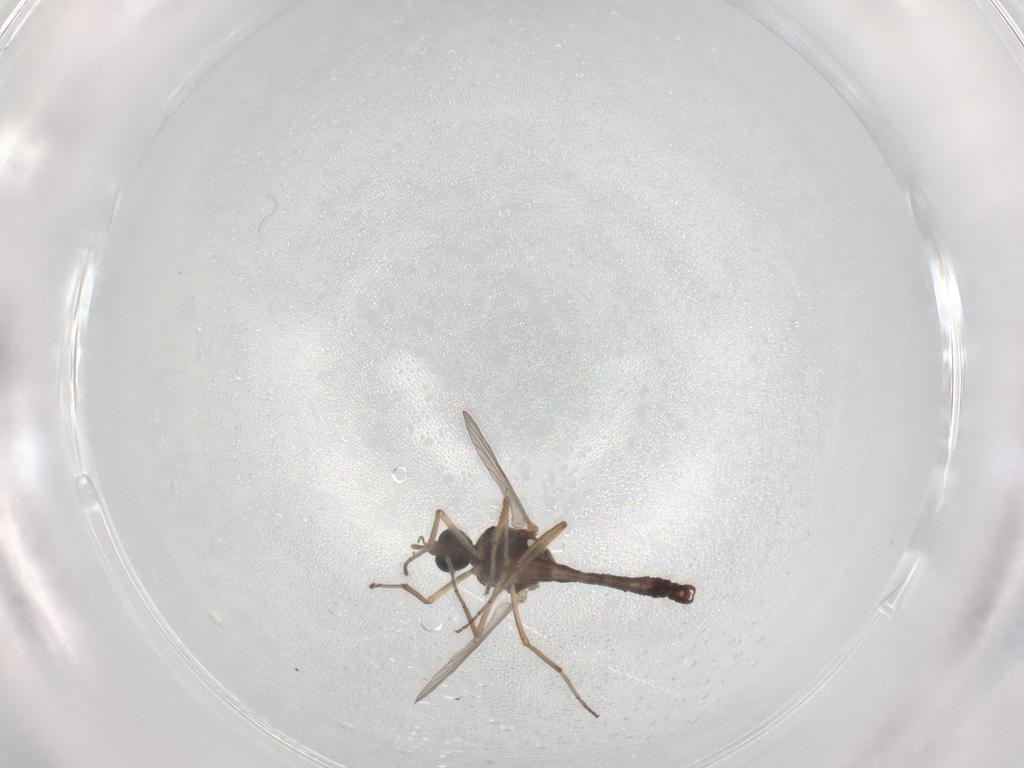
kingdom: Animalia
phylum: Arthropoda
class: Insecta
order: Diptera
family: Ceratopogonidae
